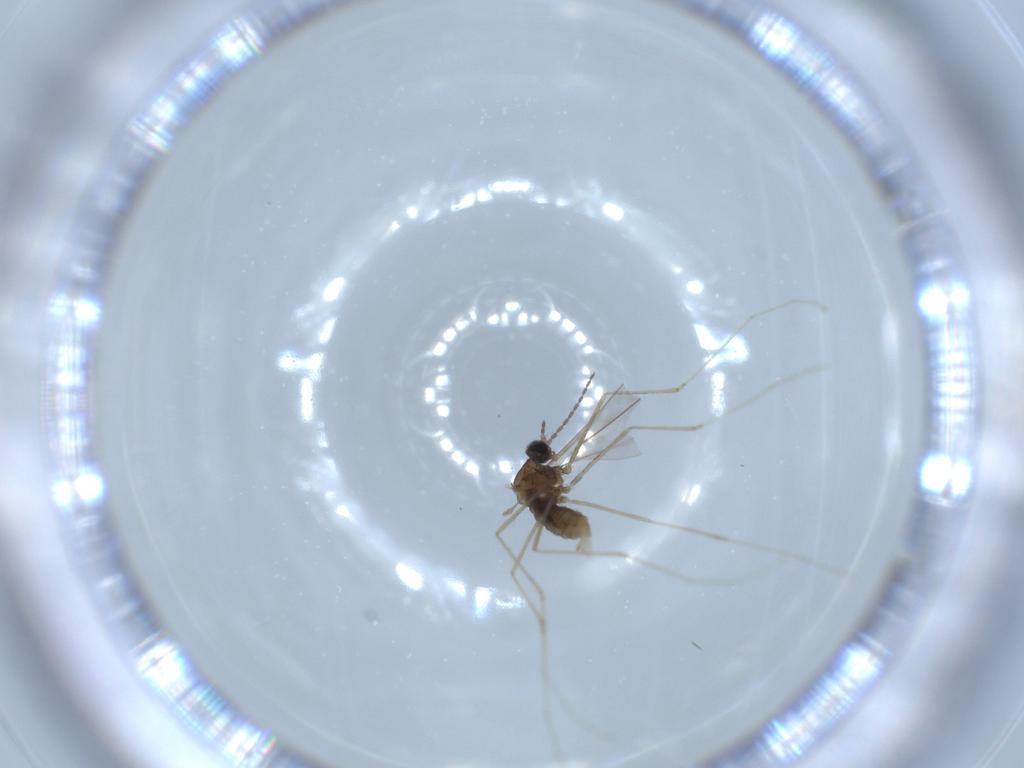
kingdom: Animalia
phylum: Arthropoda
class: Insecta
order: Diptera
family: Cecidomyiidae
